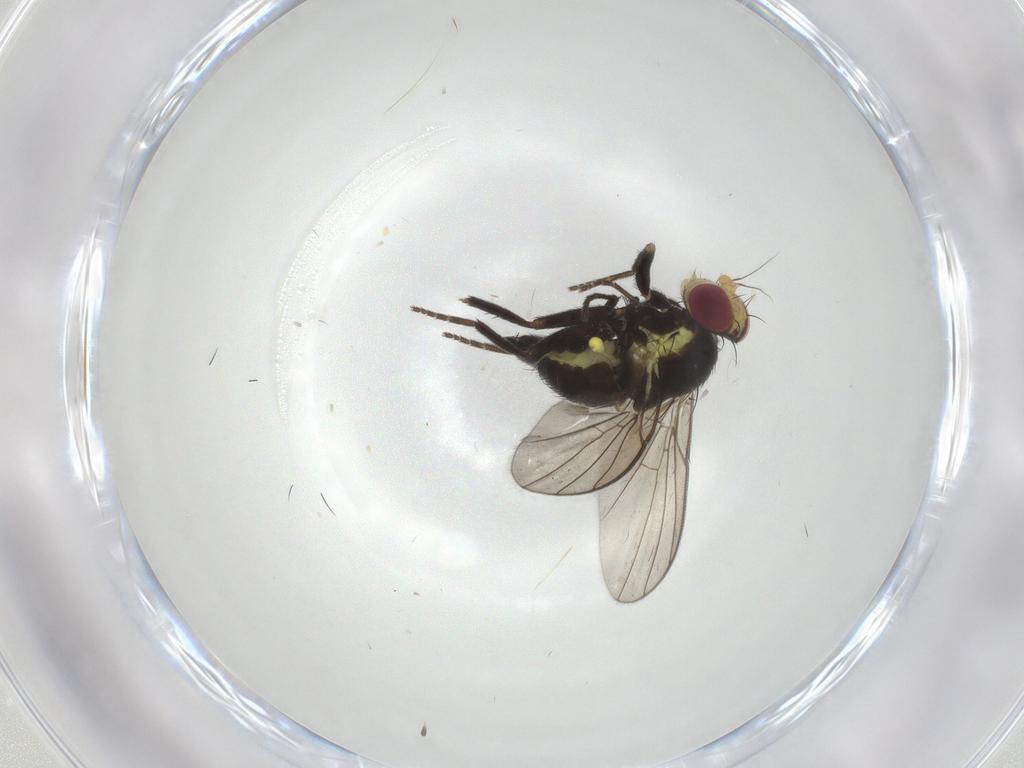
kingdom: Animalia
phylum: Arthropoda
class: Insecta
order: Diptera
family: Agromyzidae
